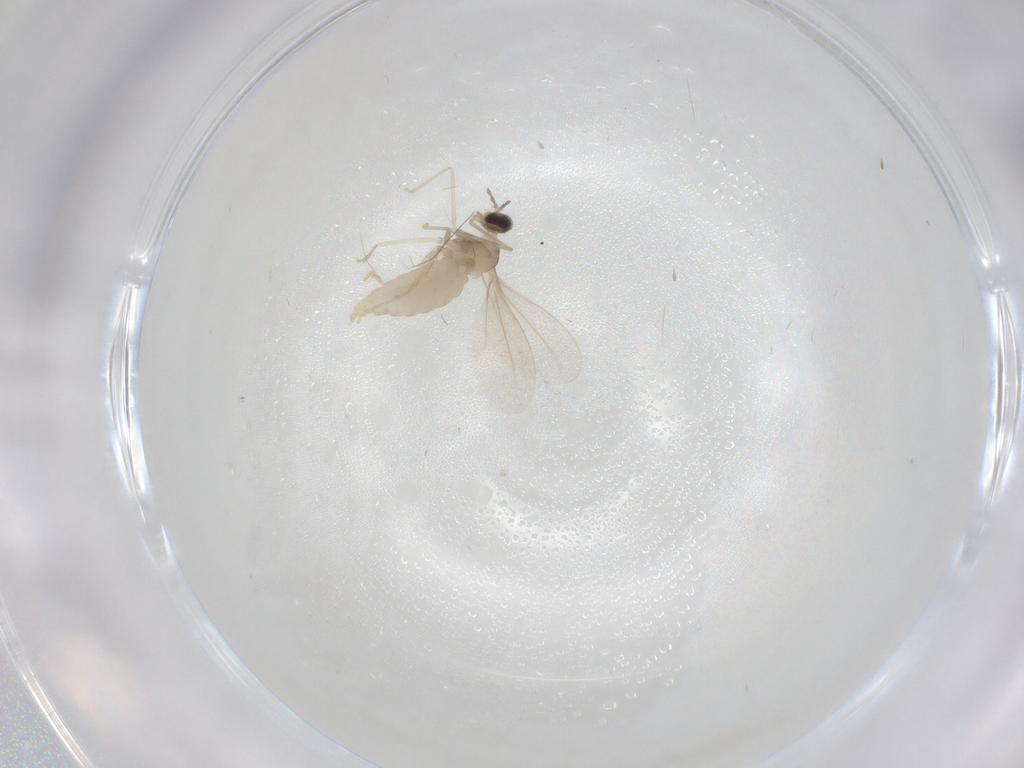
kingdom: Animalia
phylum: Arthropoda
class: Insecta
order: Diptera
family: Cecidomyiidae
